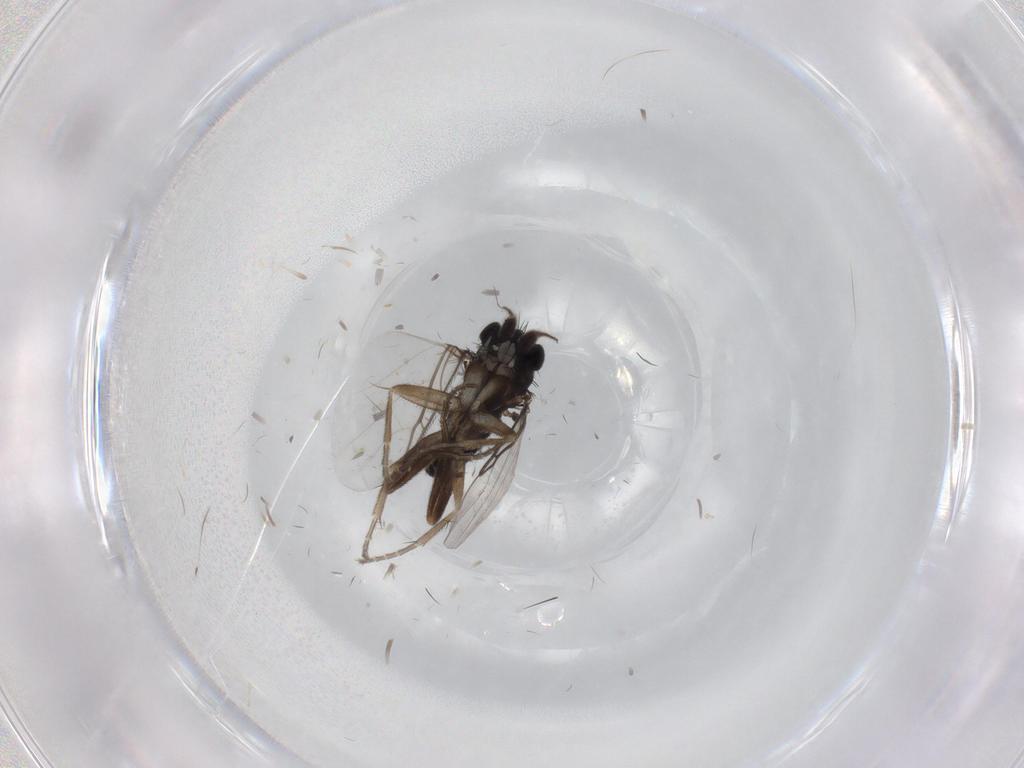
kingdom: Animalia
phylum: Arthropoda
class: Insecta
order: Diptera
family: Phoridae
